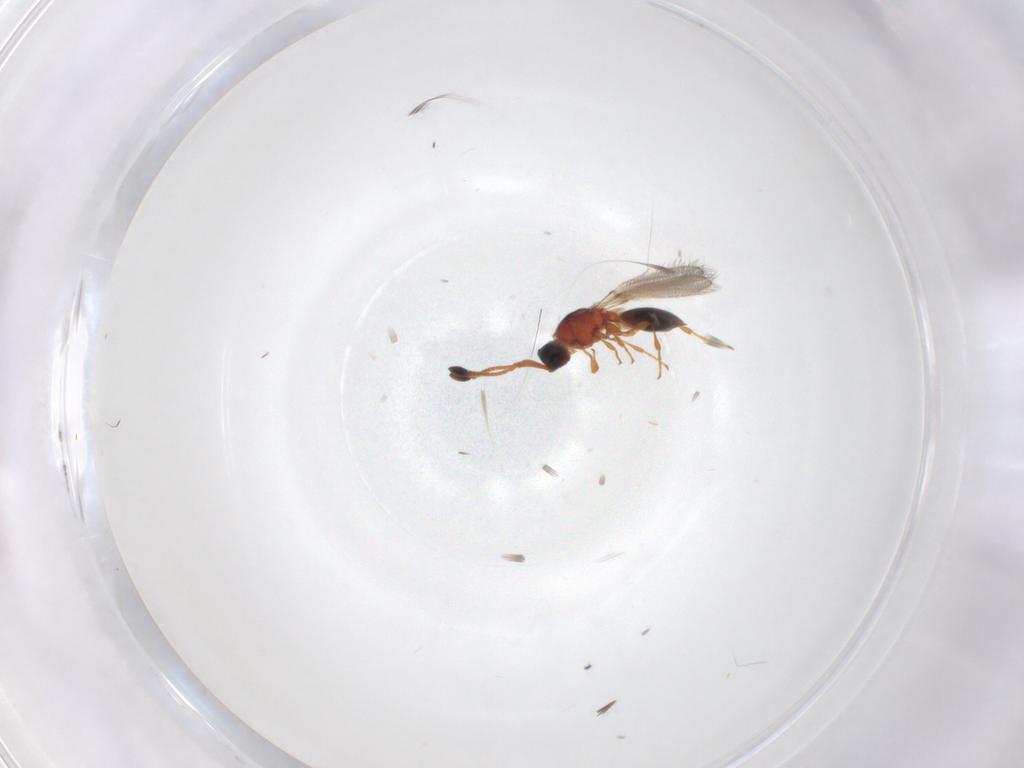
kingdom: Animalia
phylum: Arthropoda
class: Insecta
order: Hymenoptera
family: Diapriidae
